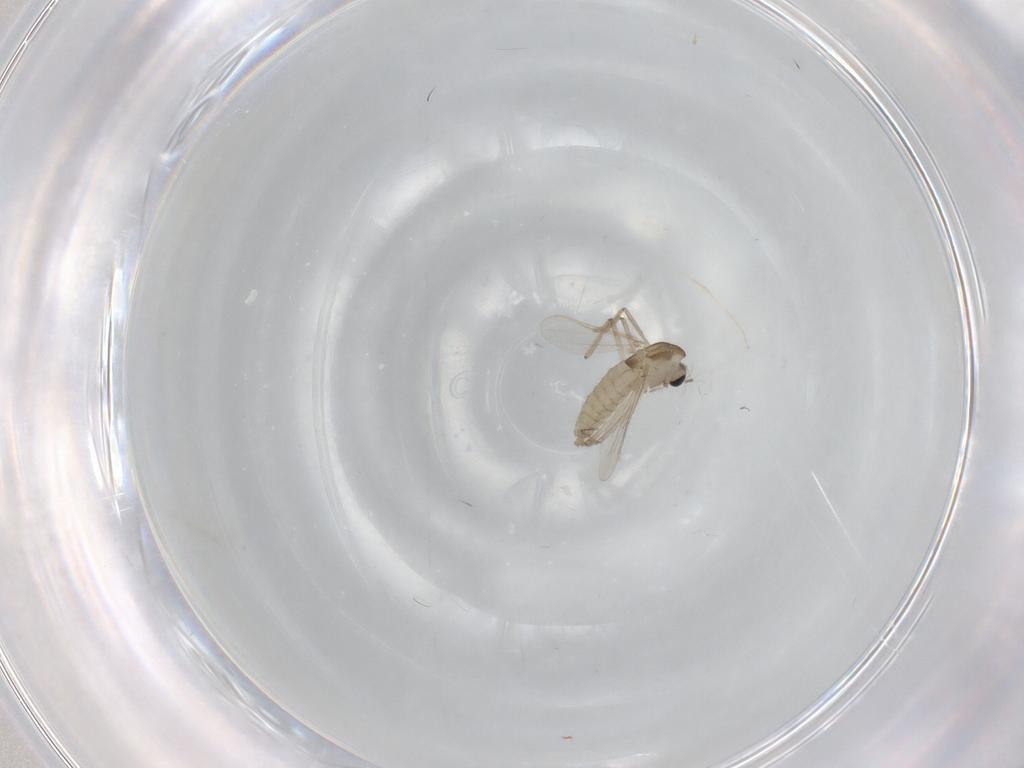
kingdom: Animalia
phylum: Arthropoda
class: Insecta
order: Diptera
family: Chironomidae
